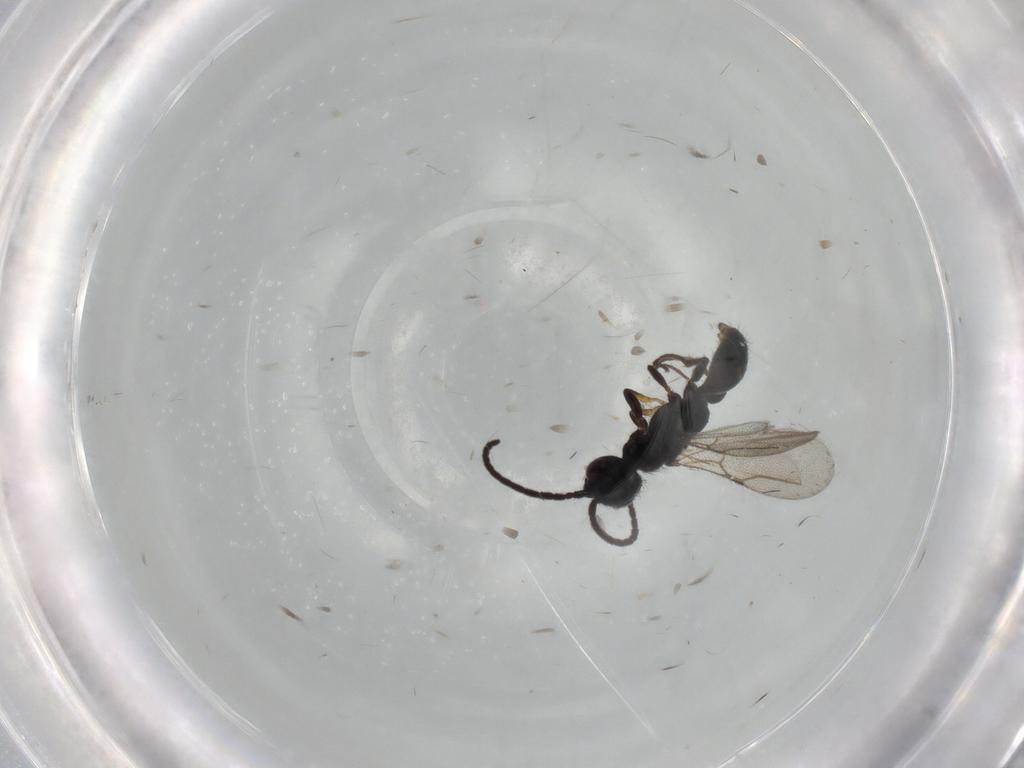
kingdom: Animalia
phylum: Arthropoda
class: Insecta
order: Hymenoptera
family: Bethylidae
